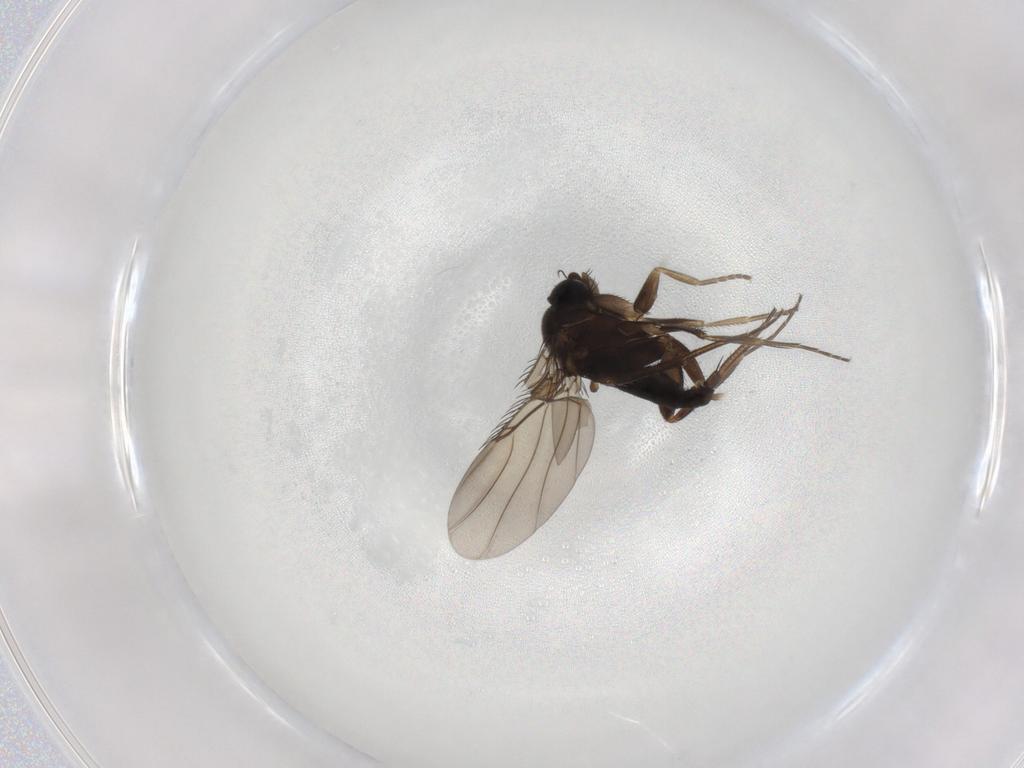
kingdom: Animalia
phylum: Arthropoda
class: Insecta
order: Diptera
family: Phoridae
